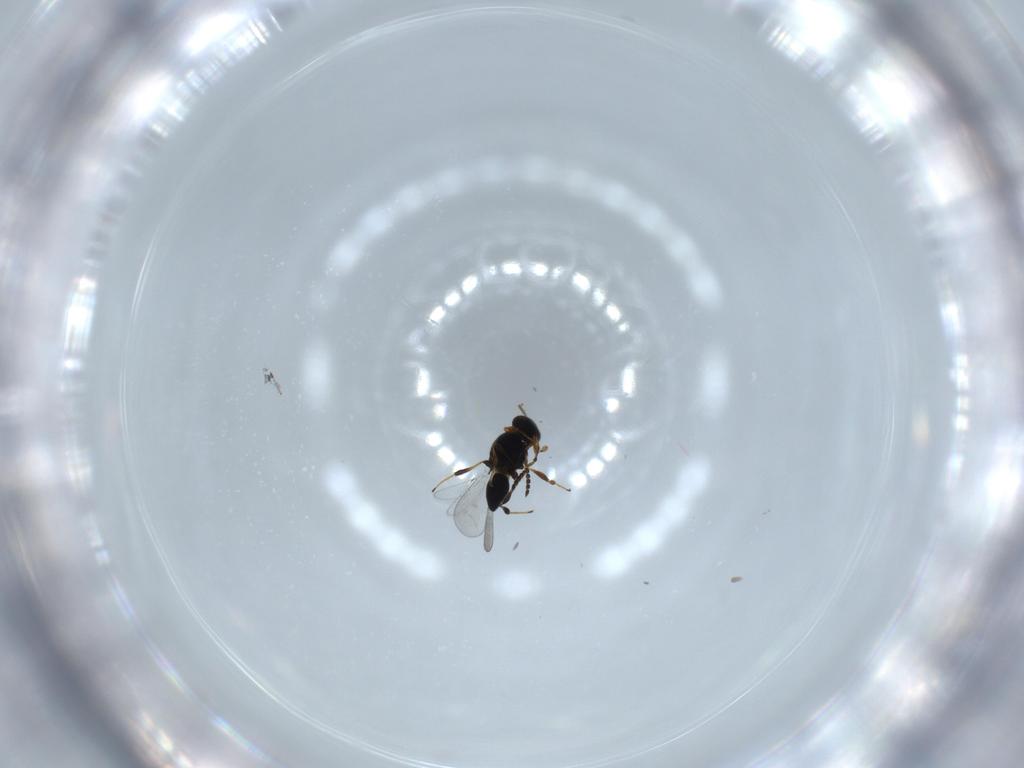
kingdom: Animalia
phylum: Arthropoda
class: Insecta
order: Hymenoptera
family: Platygastridae
